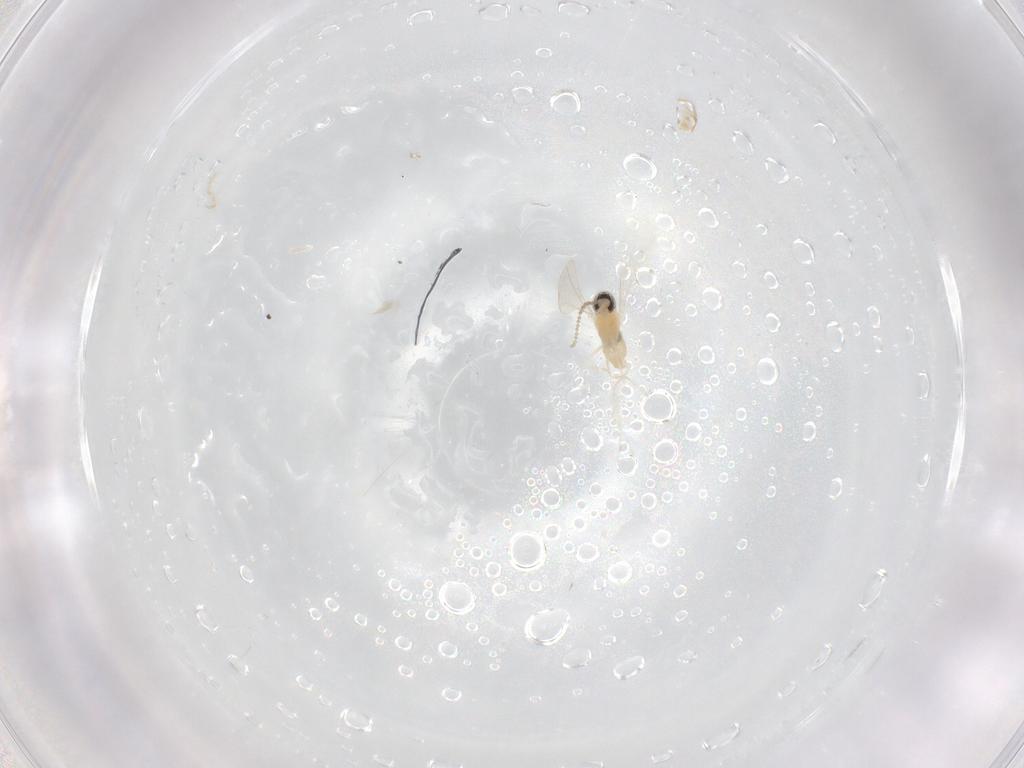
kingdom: Animalia
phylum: Arthropoda
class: Insecta
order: Diptera
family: Cecidomyiidae
